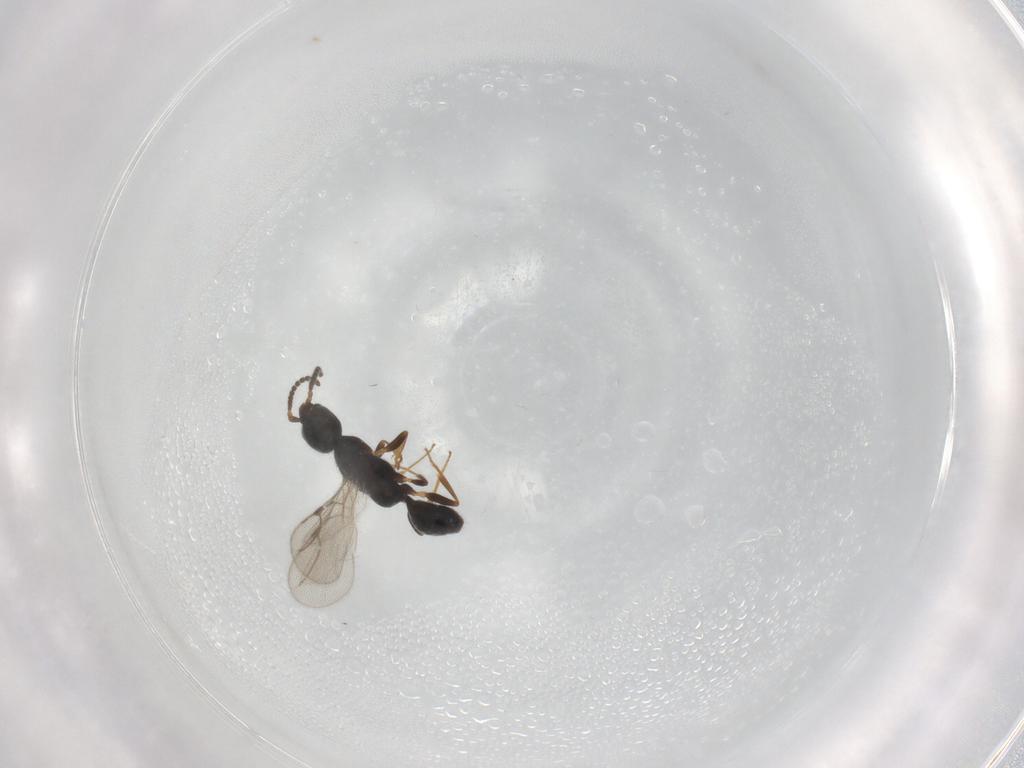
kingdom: Animalia
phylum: Arthropoda
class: Insecta
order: Hymenoptera
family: Bethylidae
